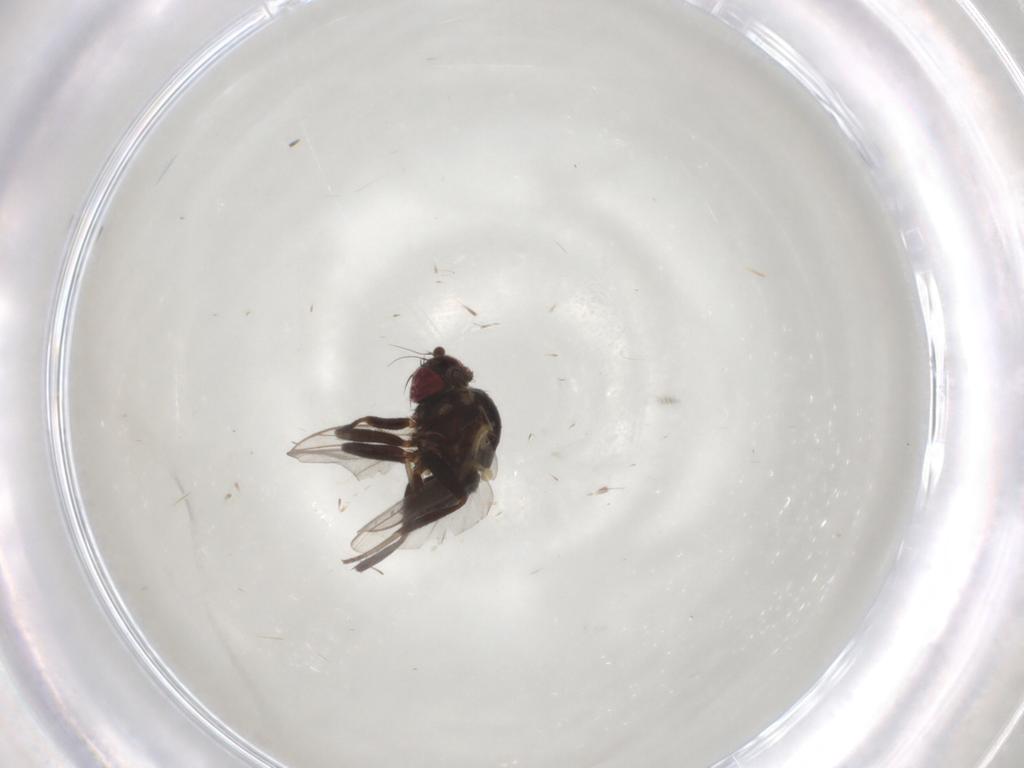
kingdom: Animalia
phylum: Arthropoda
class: Insecta
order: Diptera
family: Agromyzidae
